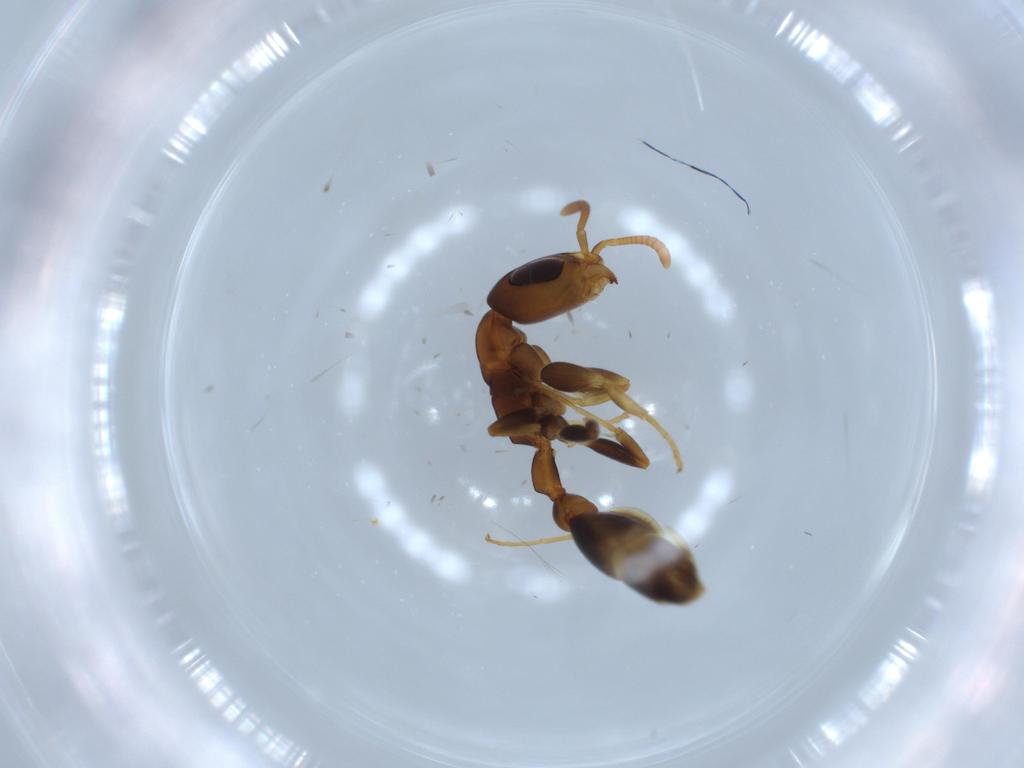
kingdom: Animalia
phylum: Arthropoda
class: Insecta
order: Hymenoptera
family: Formicidae
